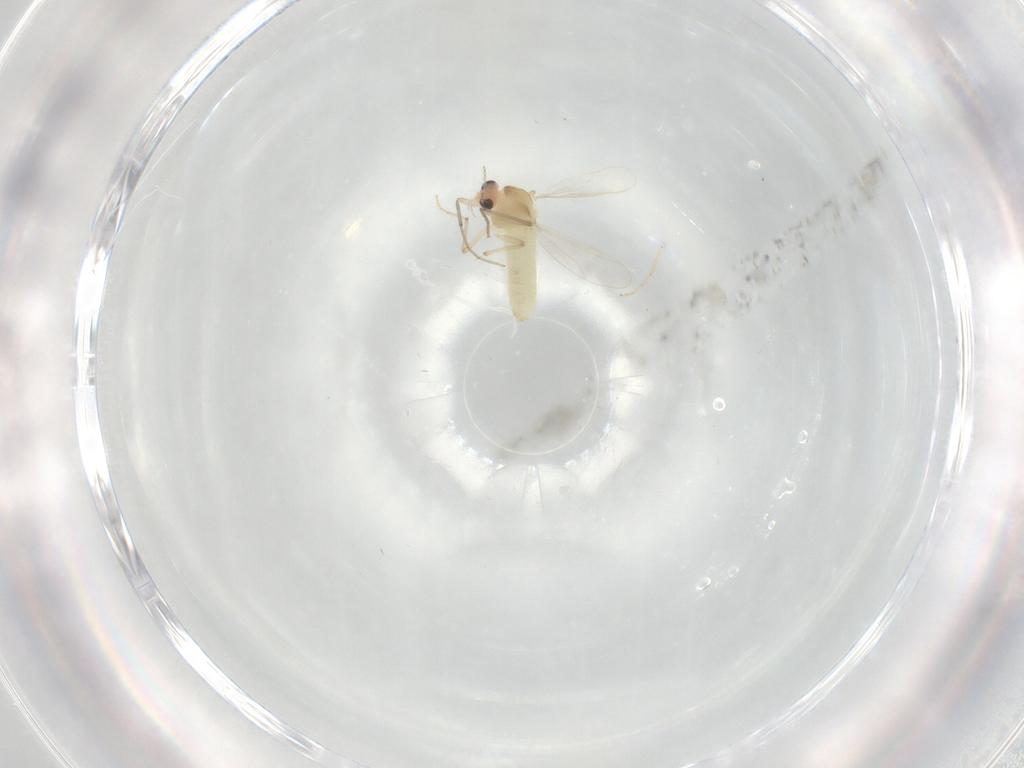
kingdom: Animalia
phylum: Arthropoda
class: Insecta
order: Diptera
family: Chironomidae
